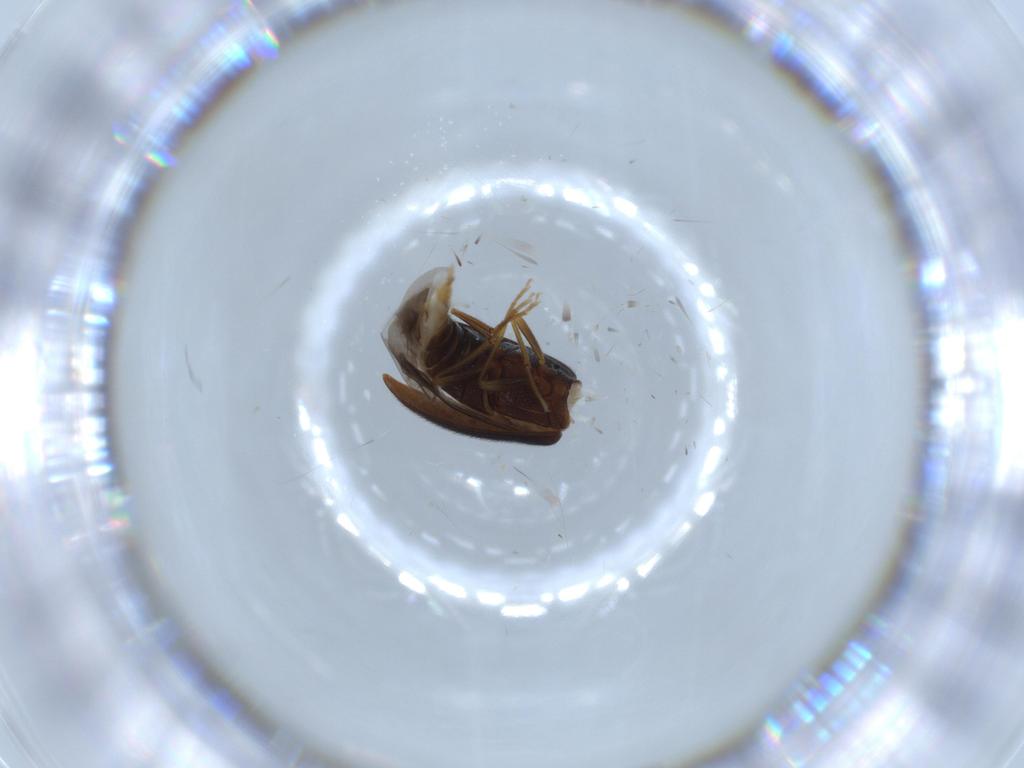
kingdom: Animalia
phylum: Arthropoda
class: Insecta
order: Coleoptera
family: Melandryidae
